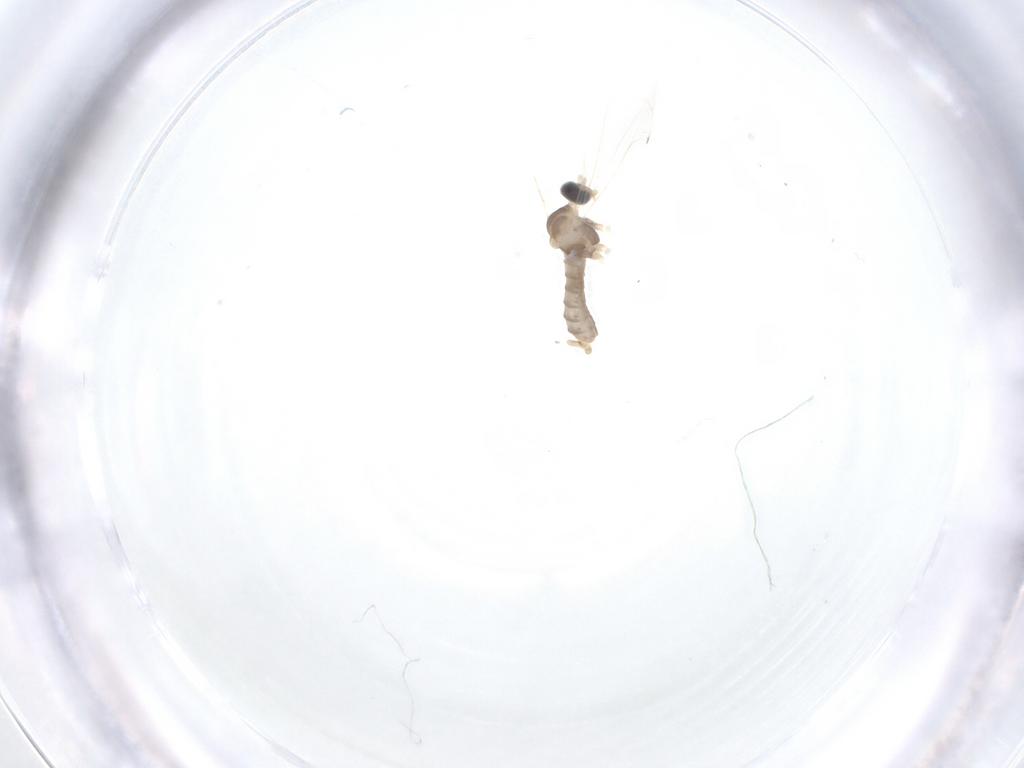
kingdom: Animalia
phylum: Arthropoda
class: Insecta
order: Diptera
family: Cecidomyiidae
